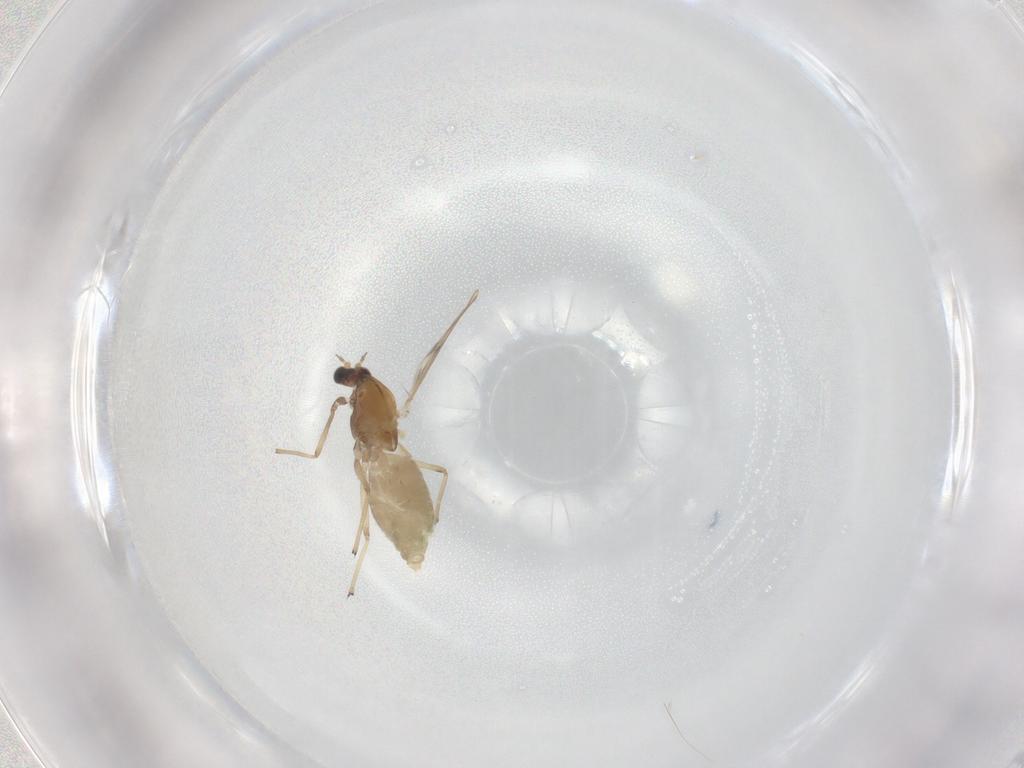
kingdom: Animalia
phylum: Arthropoda
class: Insecta
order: Diptera
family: Chironomidae
